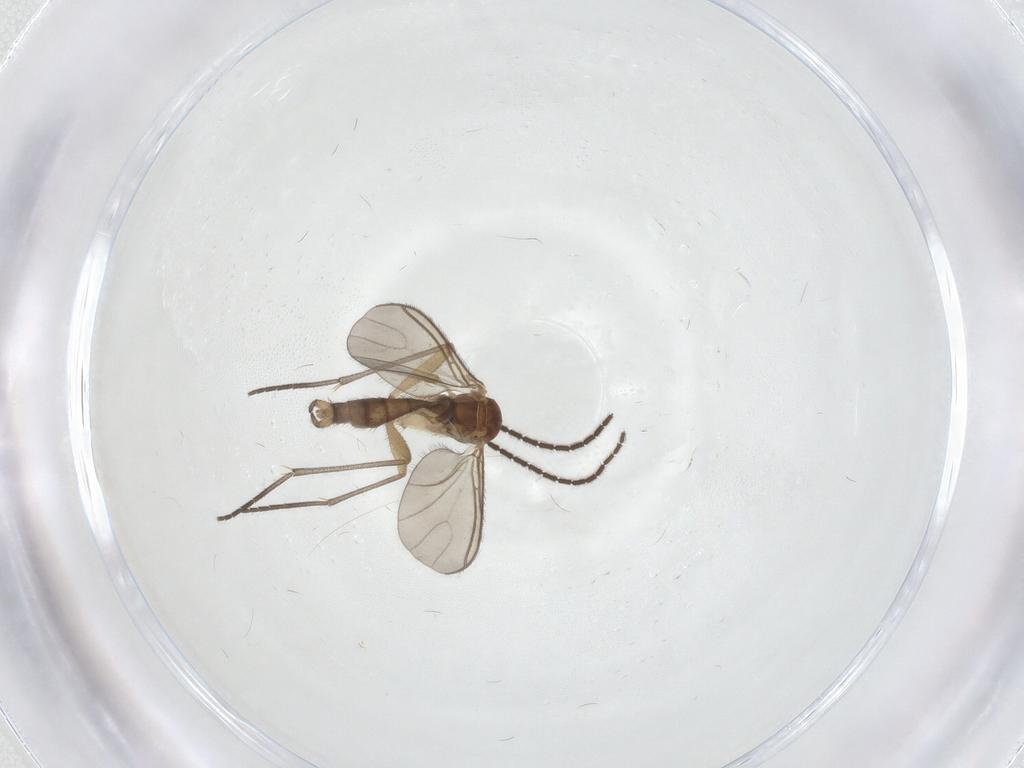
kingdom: Animalia
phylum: Arthropoda
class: Insecta
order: Diptera
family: Sciaridae
